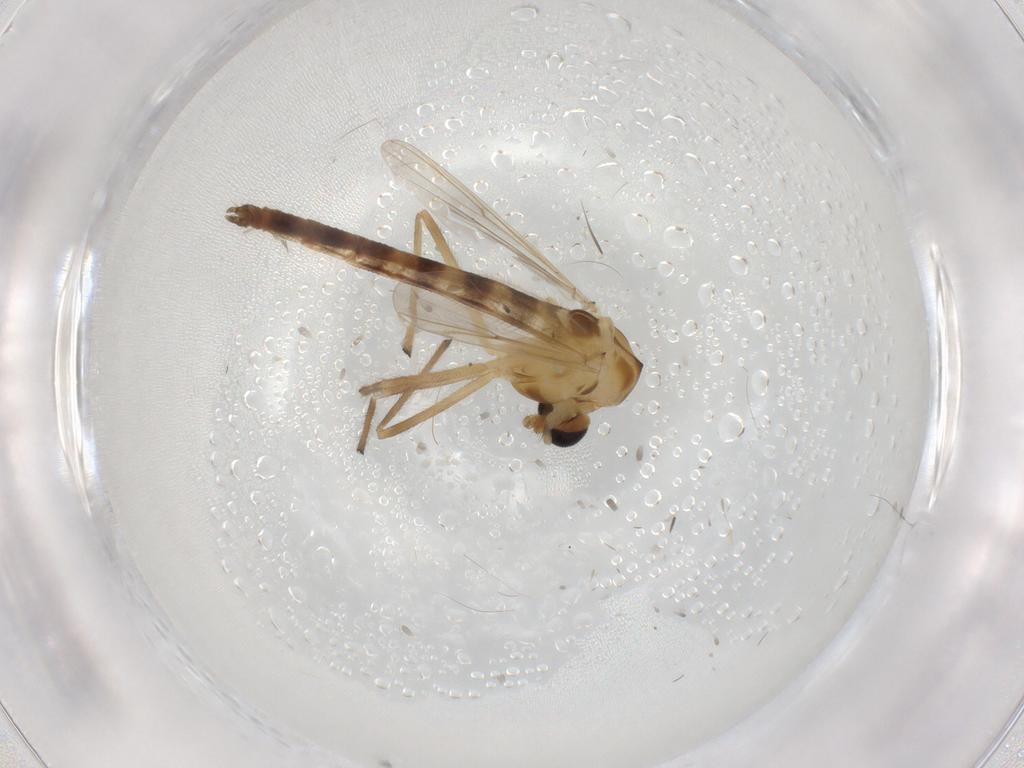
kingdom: Animalia
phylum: Arthropoda
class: Insecta
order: Diptera
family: Chironomidae
